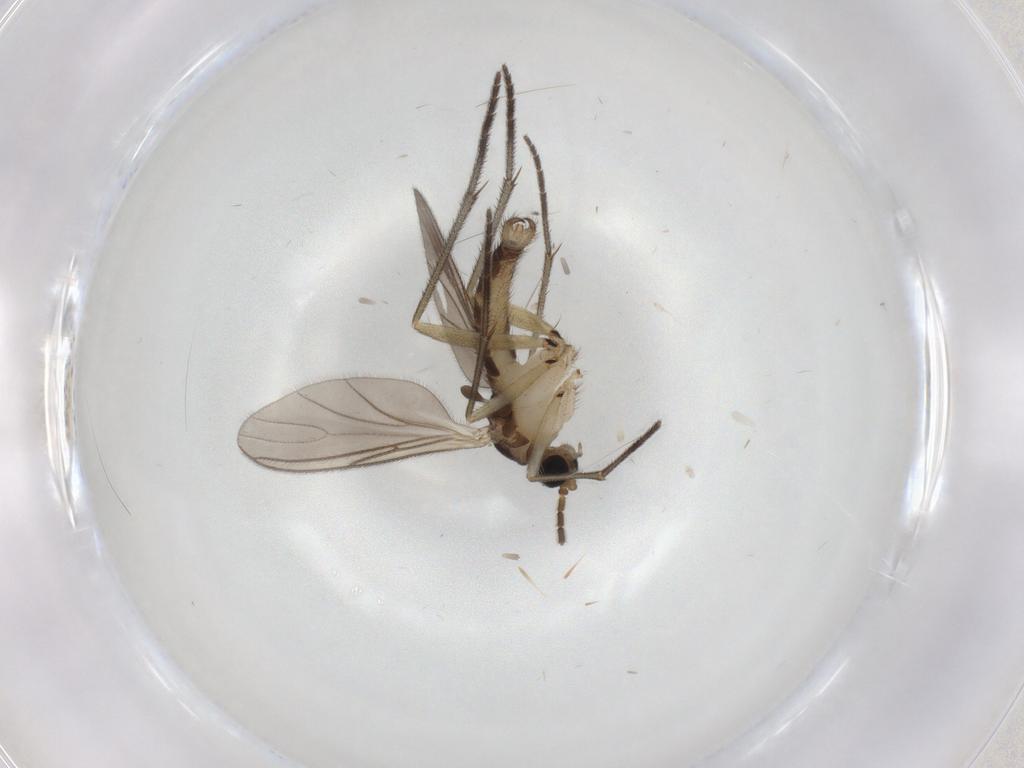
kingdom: Animalia
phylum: Arthropoda
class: Insecta
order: Diptera
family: Sciaridae
